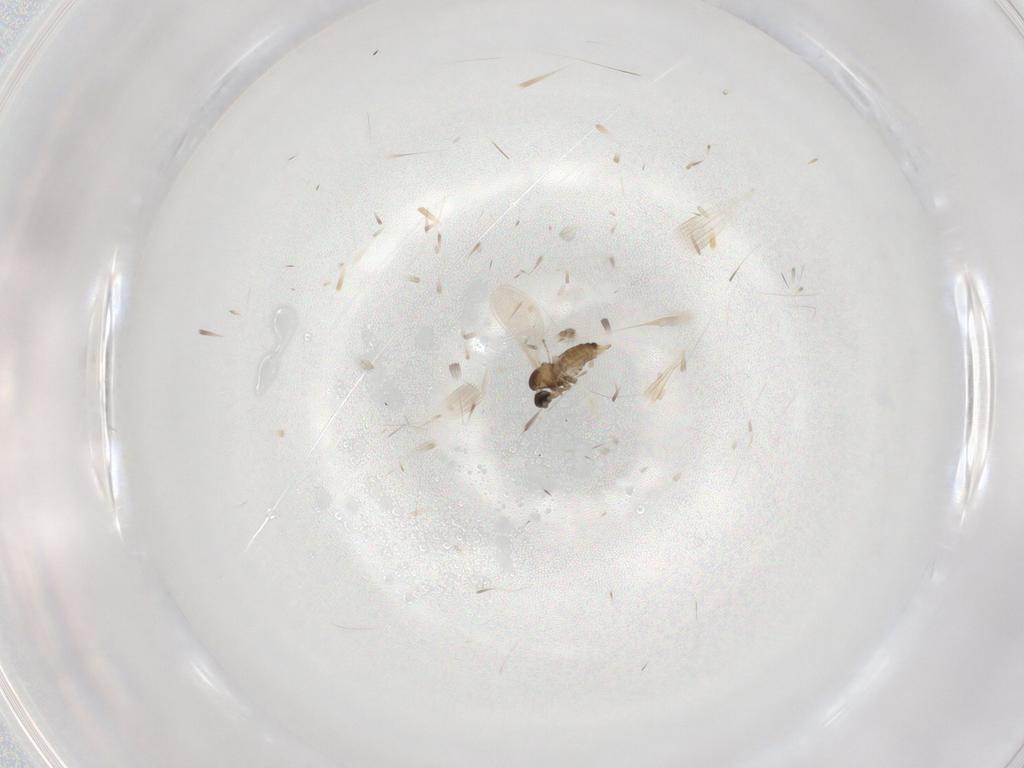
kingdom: Animalia
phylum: Arthropoda
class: Insecta
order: Diptera
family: Cecidomyiidae
